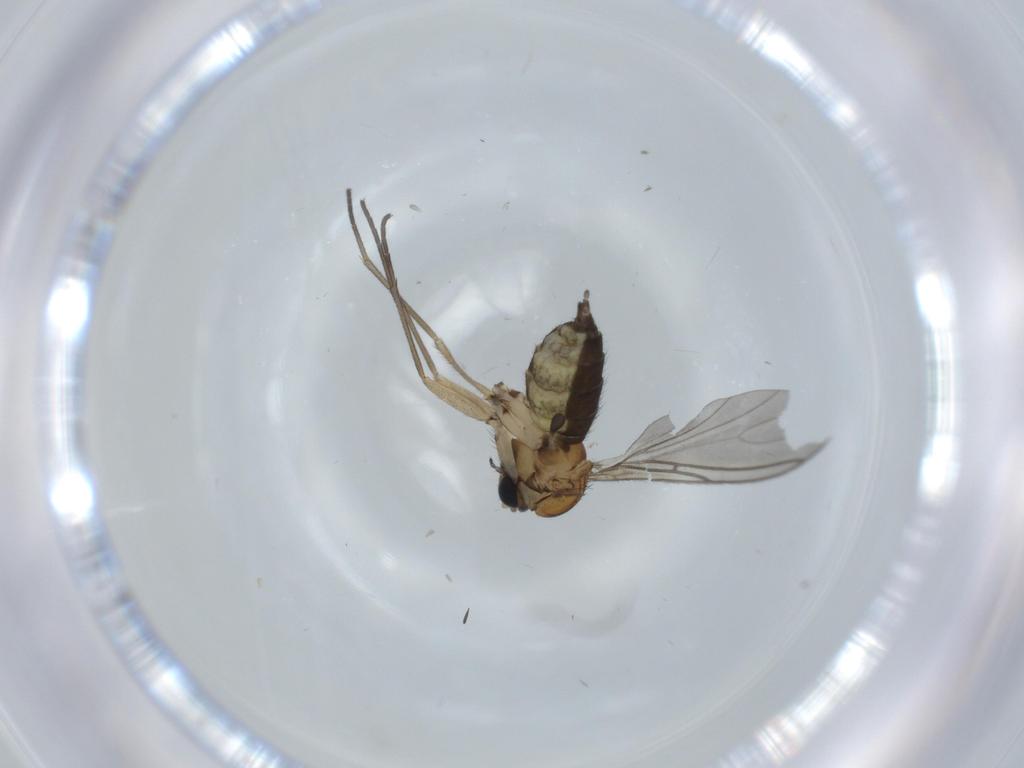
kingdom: Animalia
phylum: Arthropoda
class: Insecta
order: Diptera
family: Sciaridae
